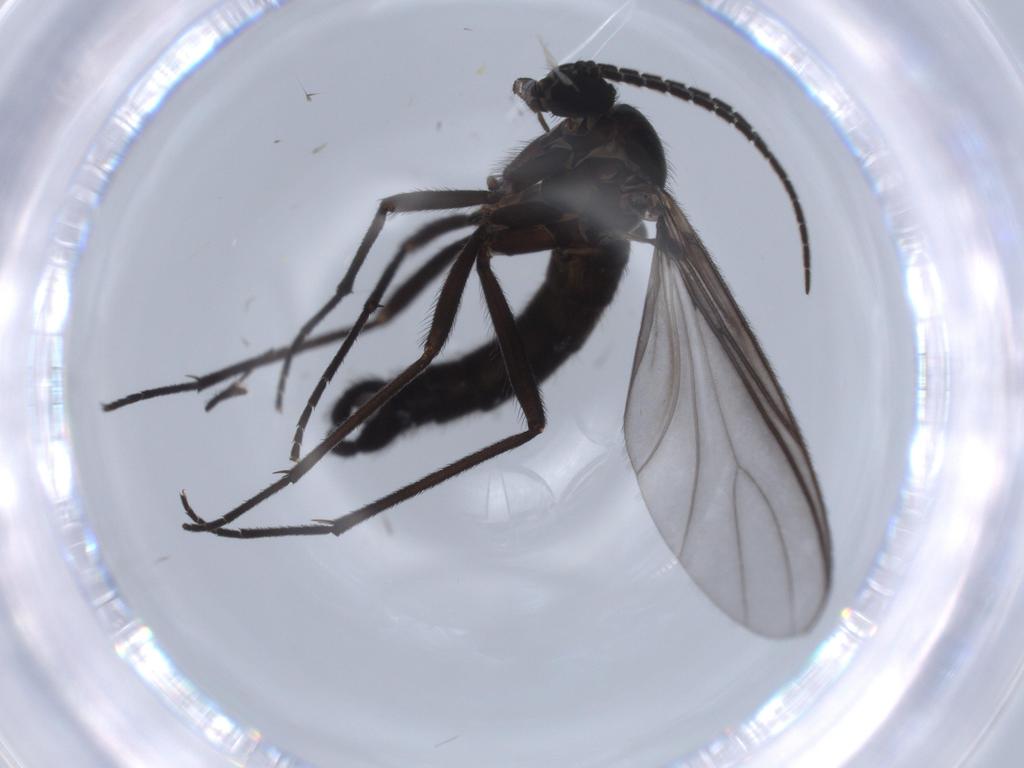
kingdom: Animalia
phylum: Arthropoda
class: Insecta
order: Diptera
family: Sciaridae
